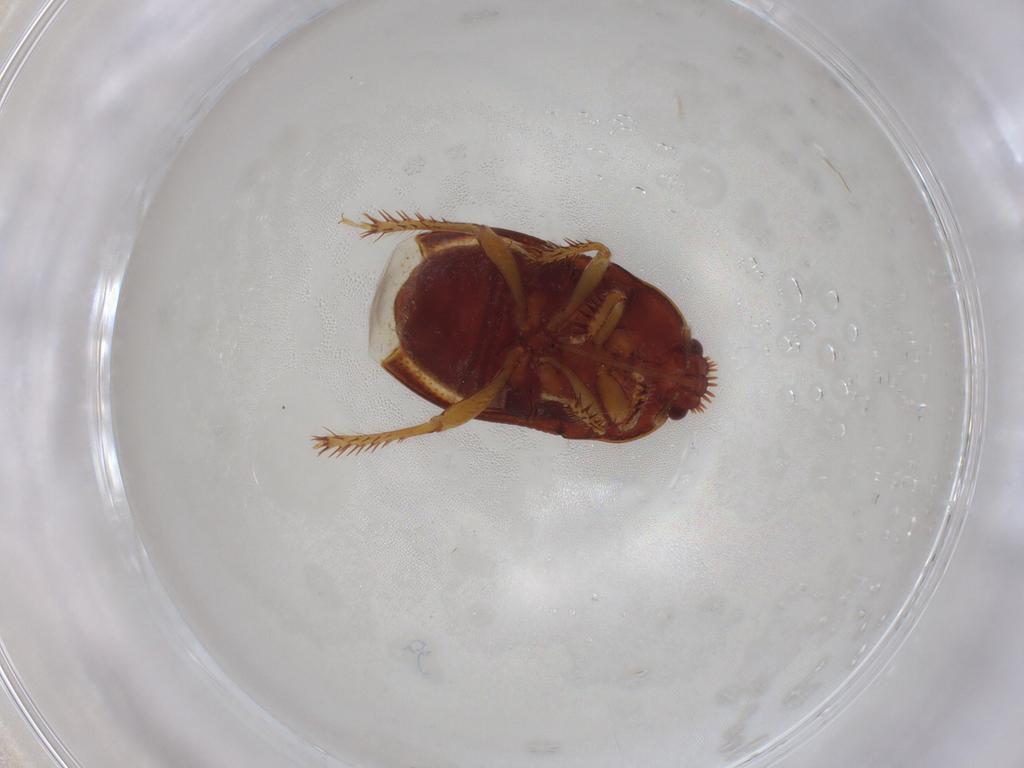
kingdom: Animalia
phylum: Arthropoda
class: Insecta
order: Hemiptera
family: Cydnidae
